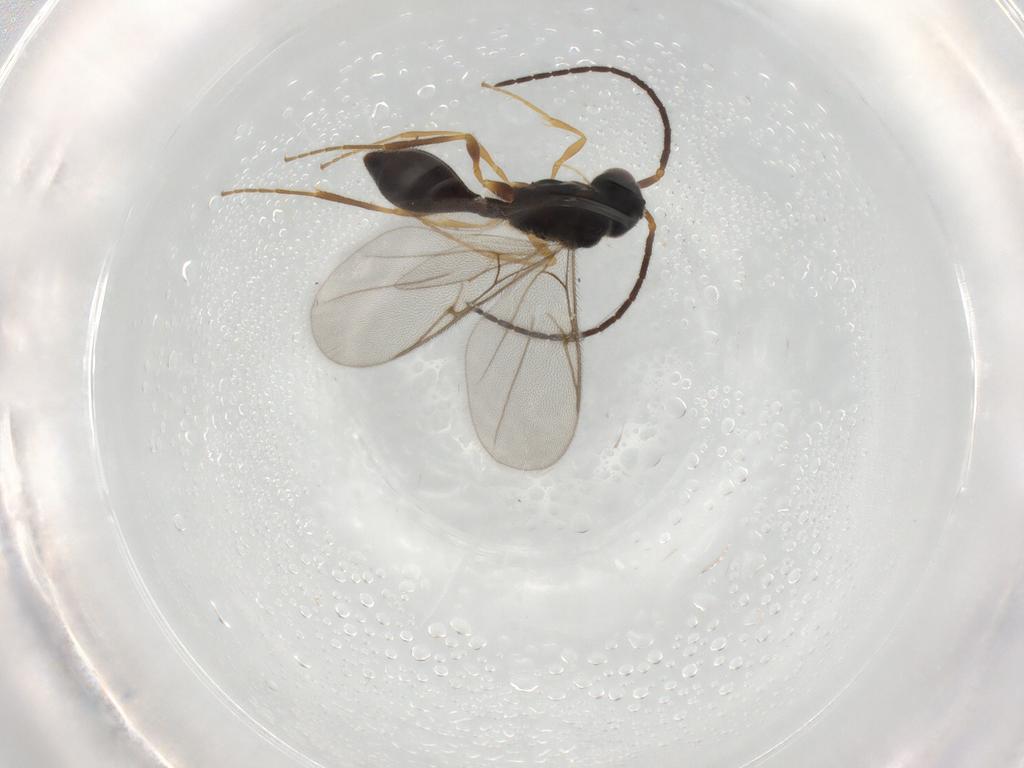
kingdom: Animalia
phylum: Arthropoda
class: Insecta
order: Hymenoptera
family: Diapriidae
